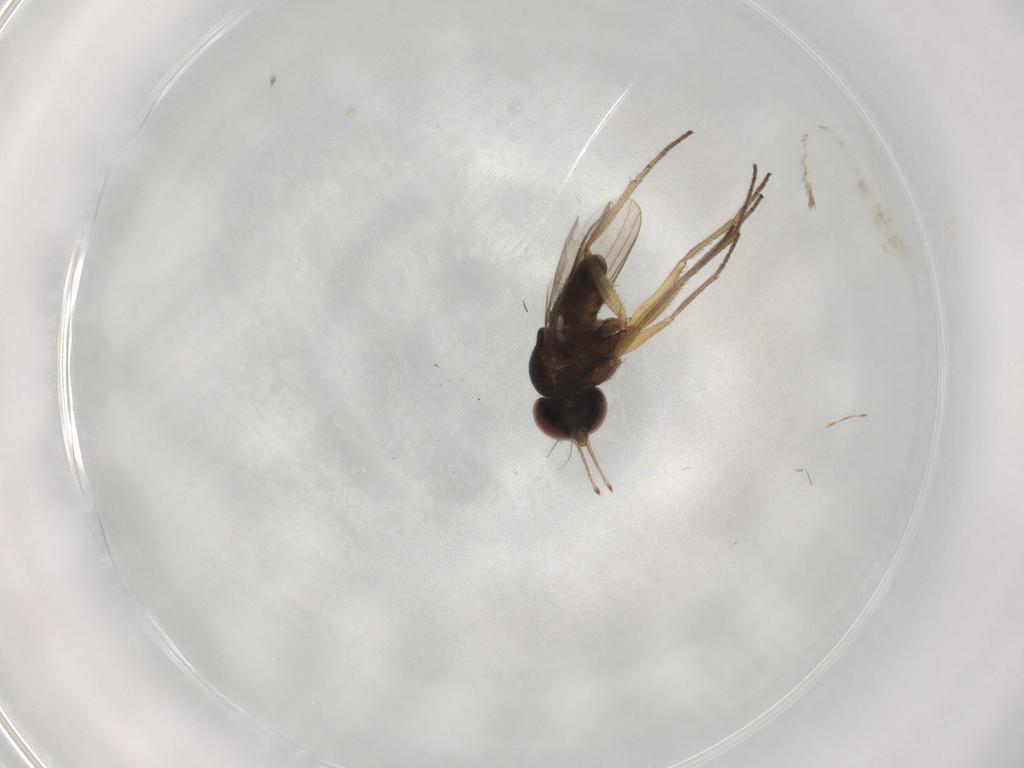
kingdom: Animalia
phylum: Arthropoda
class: Insecta
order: Diptera
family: Chironomidae
